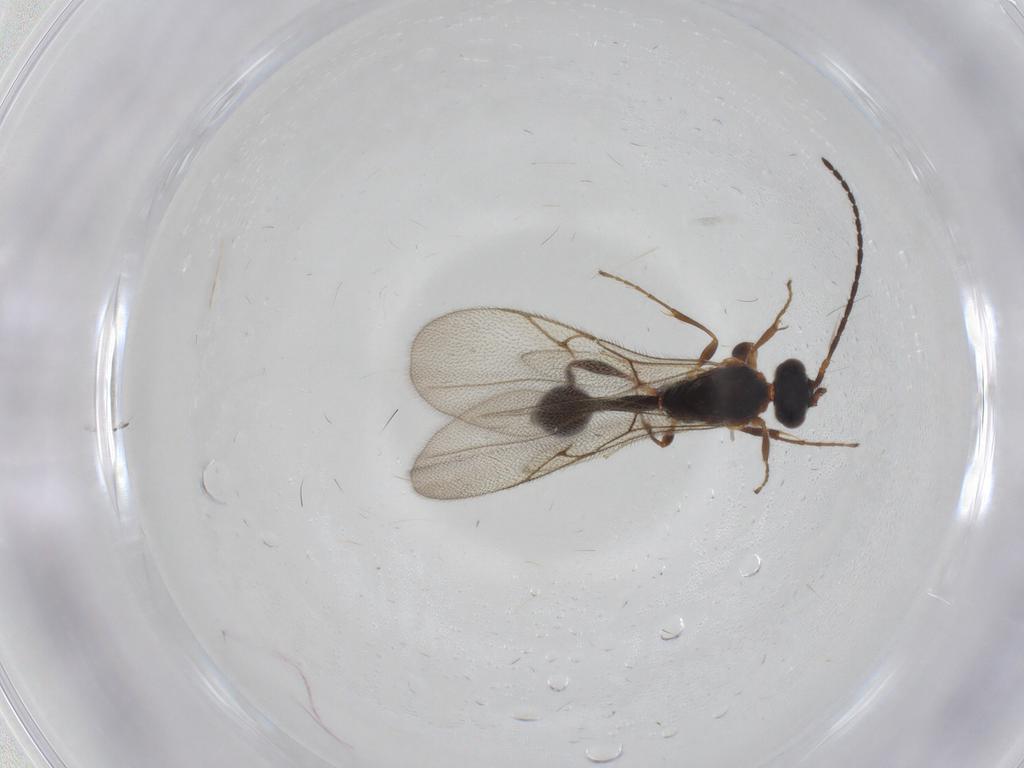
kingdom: Animalia
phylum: Arthropoda
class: Insecta
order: Hymenoptera
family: Diapriidae
